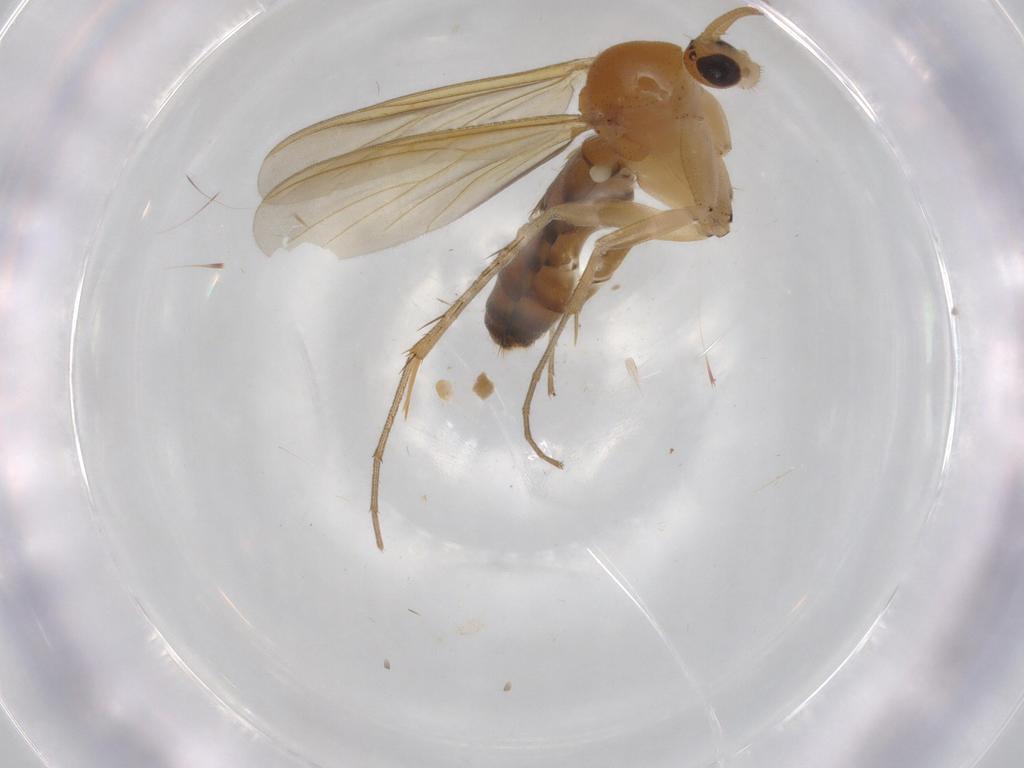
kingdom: Animalia
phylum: Arthropoda
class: Insecta
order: Diptera
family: Mycetophilidae
